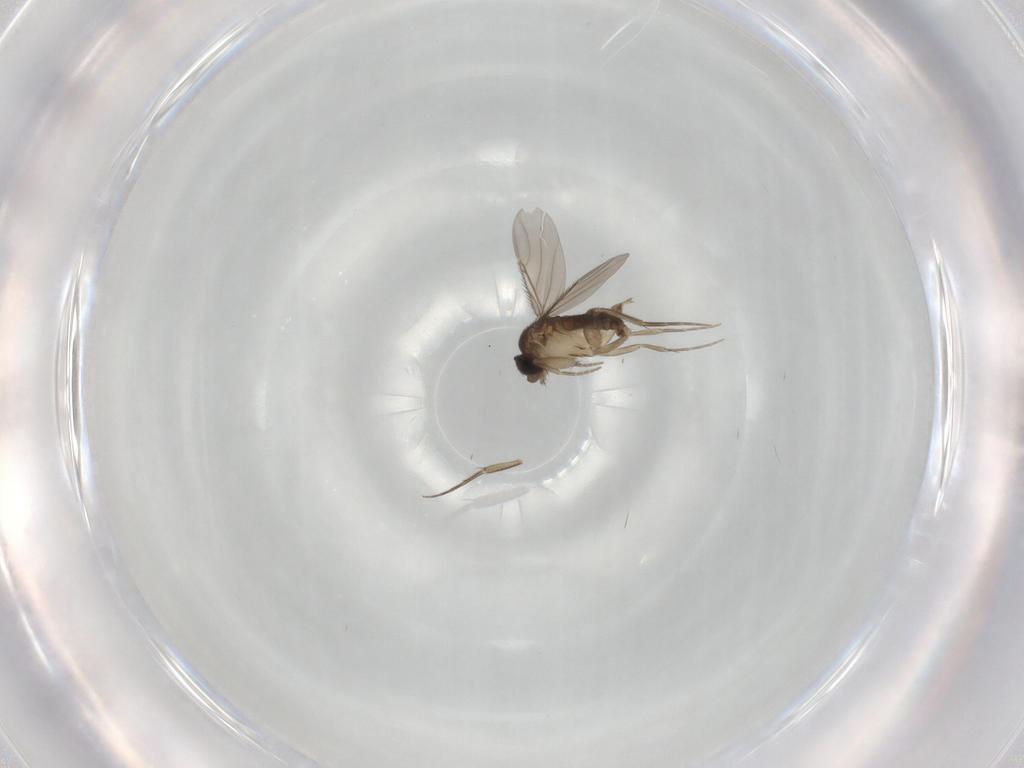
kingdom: Animalia
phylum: Arthropoda
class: Insecta
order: Diptera
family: Phoridae
